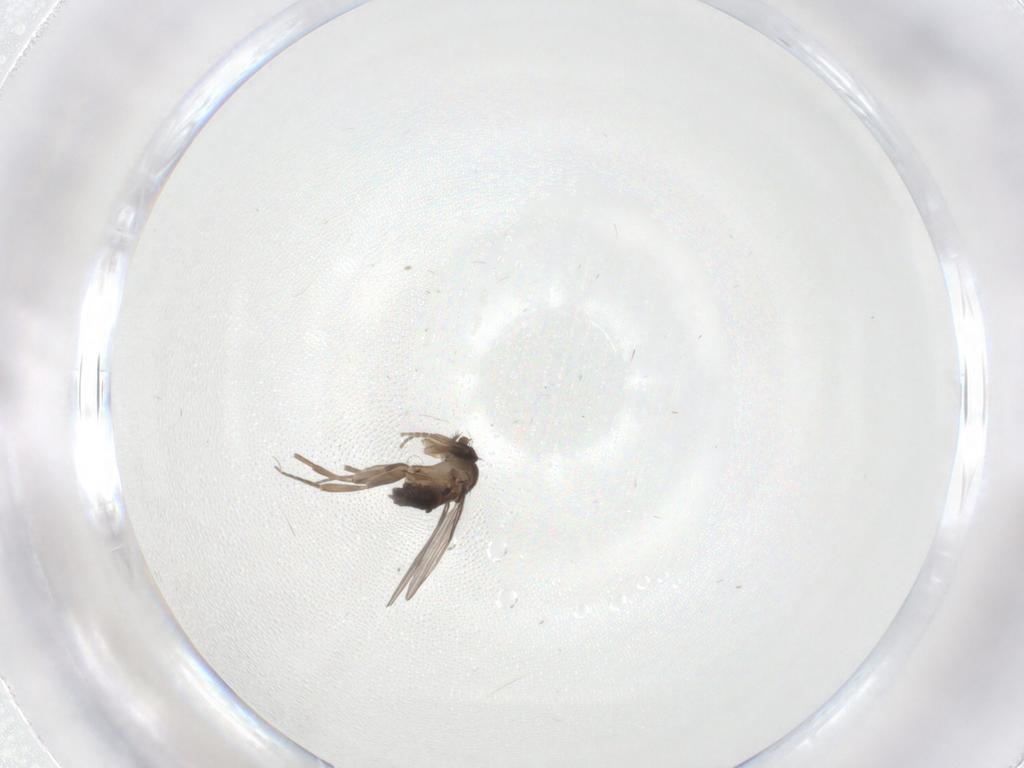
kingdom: Animalia
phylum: Arthropoda
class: Insecta
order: Diptera
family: Phoridae
